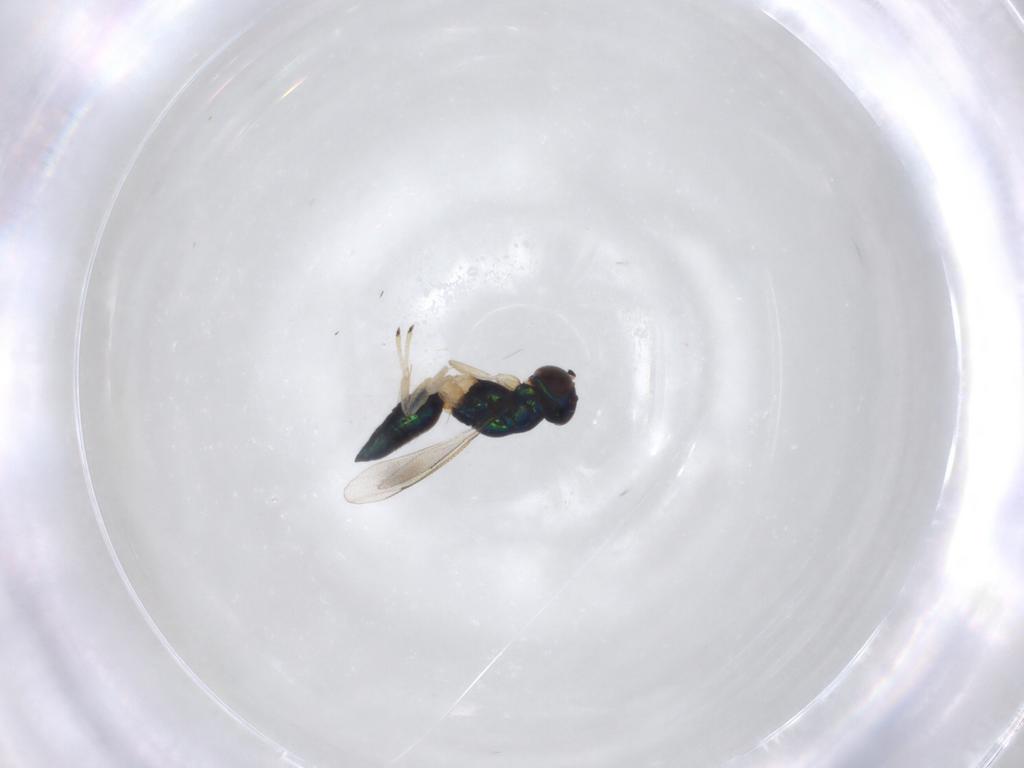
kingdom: Animalia
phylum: Arthropoda
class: Insecta
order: Hymenoptera
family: Eulophidae
